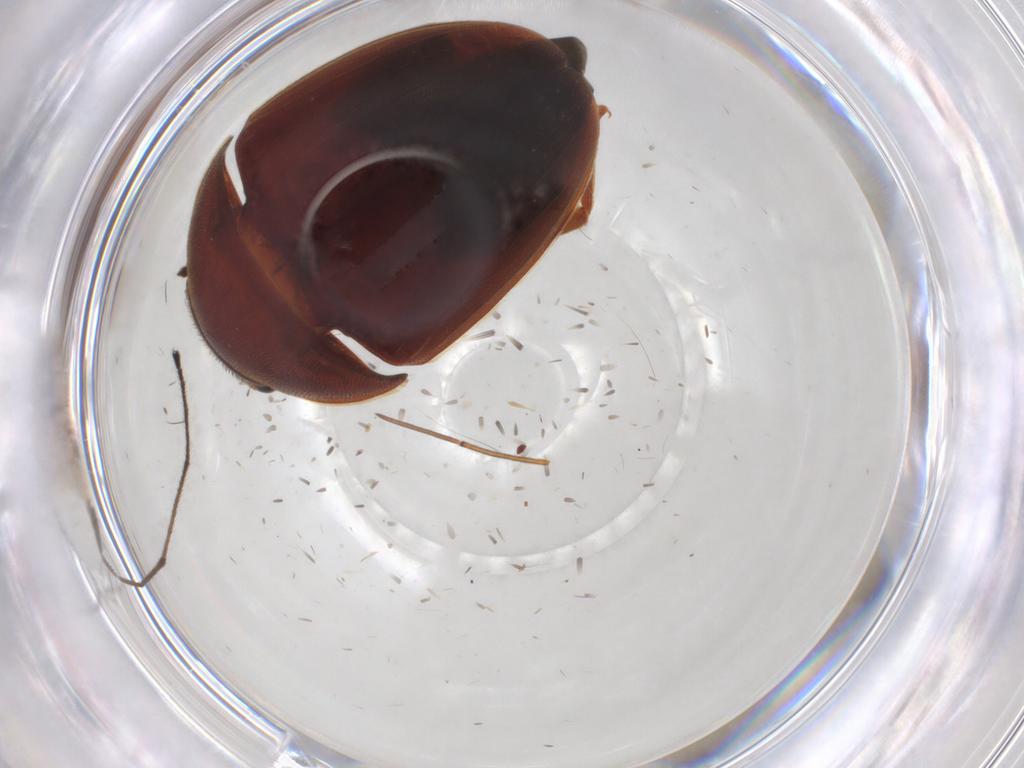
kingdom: Animalia
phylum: Arthropoda
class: Insecta
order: Coleoptera
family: Nitidulidae
